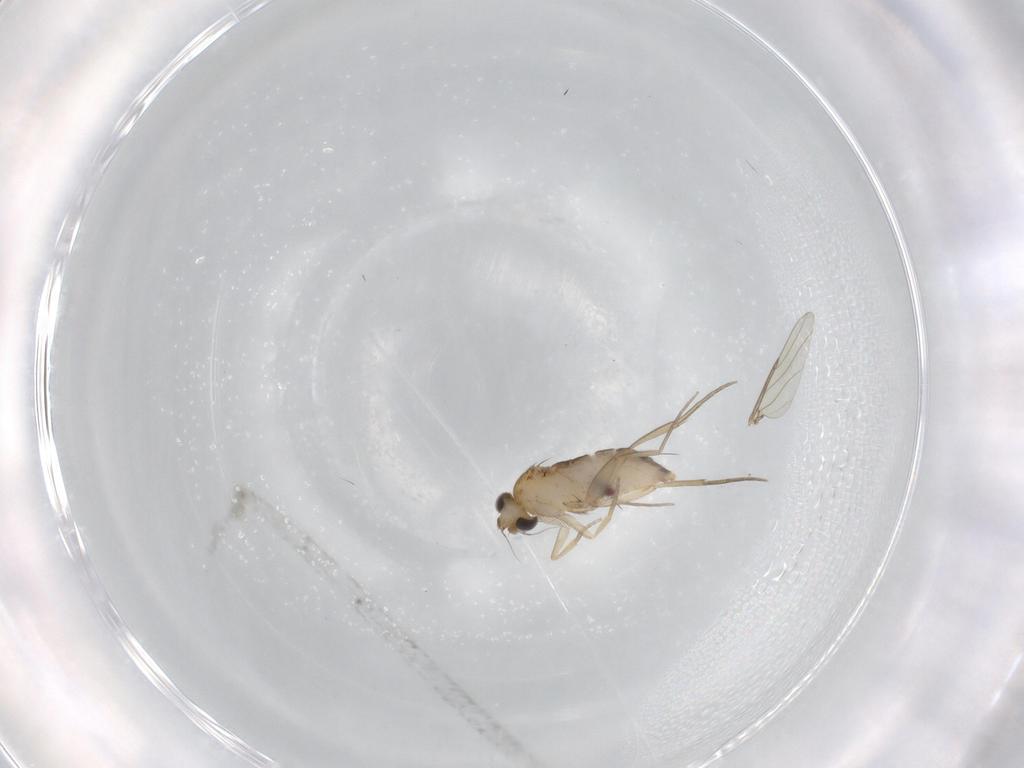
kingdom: Animalia
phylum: Arthropoda
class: Insecta
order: Diptera
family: Phoridae
